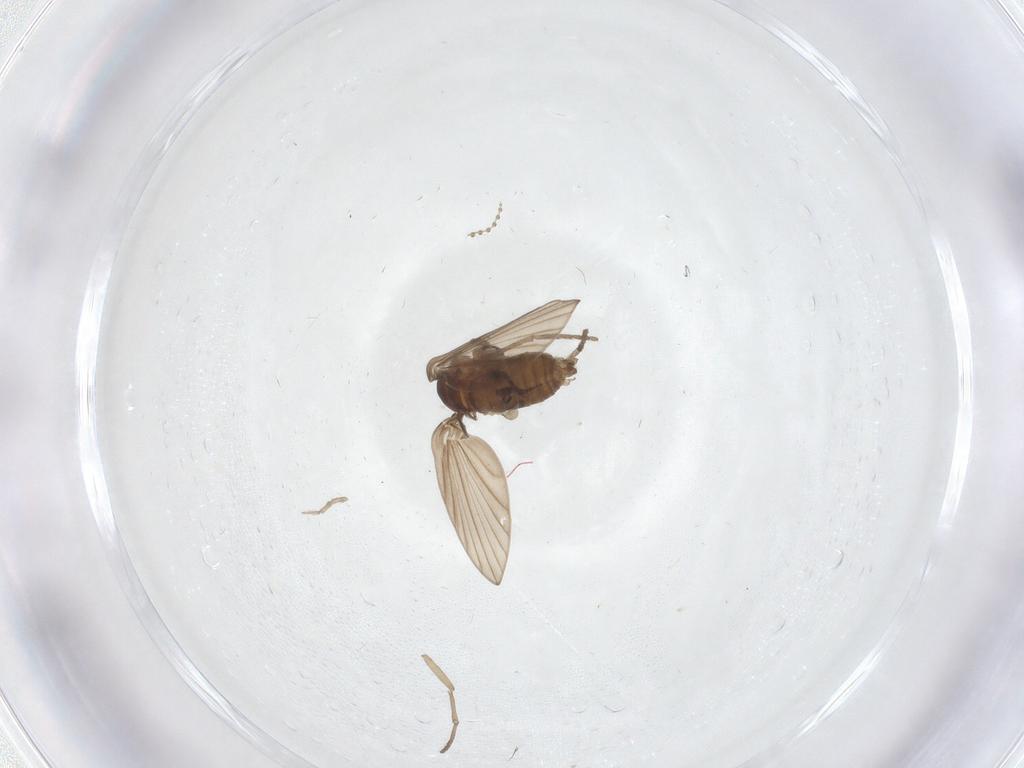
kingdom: Animalia
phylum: Arthropoda
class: Insecta
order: Diptera
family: Psychodidae
